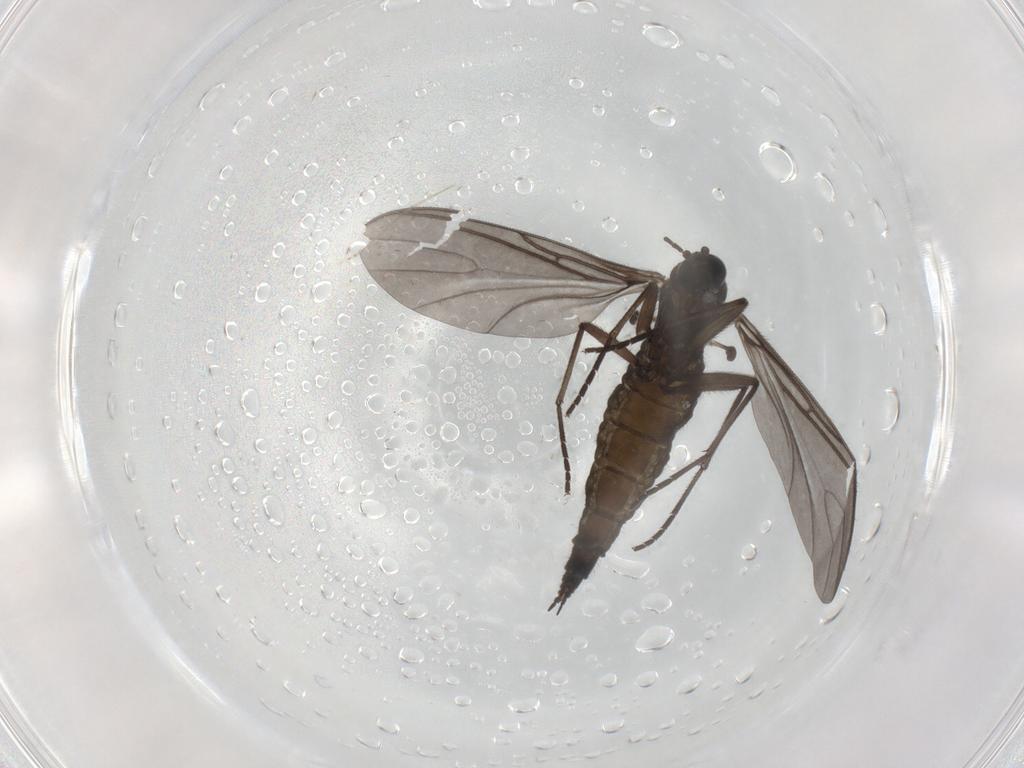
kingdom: Animalia
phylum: Arthropoda
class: Insecta
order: Diptera
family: Sciaridae
